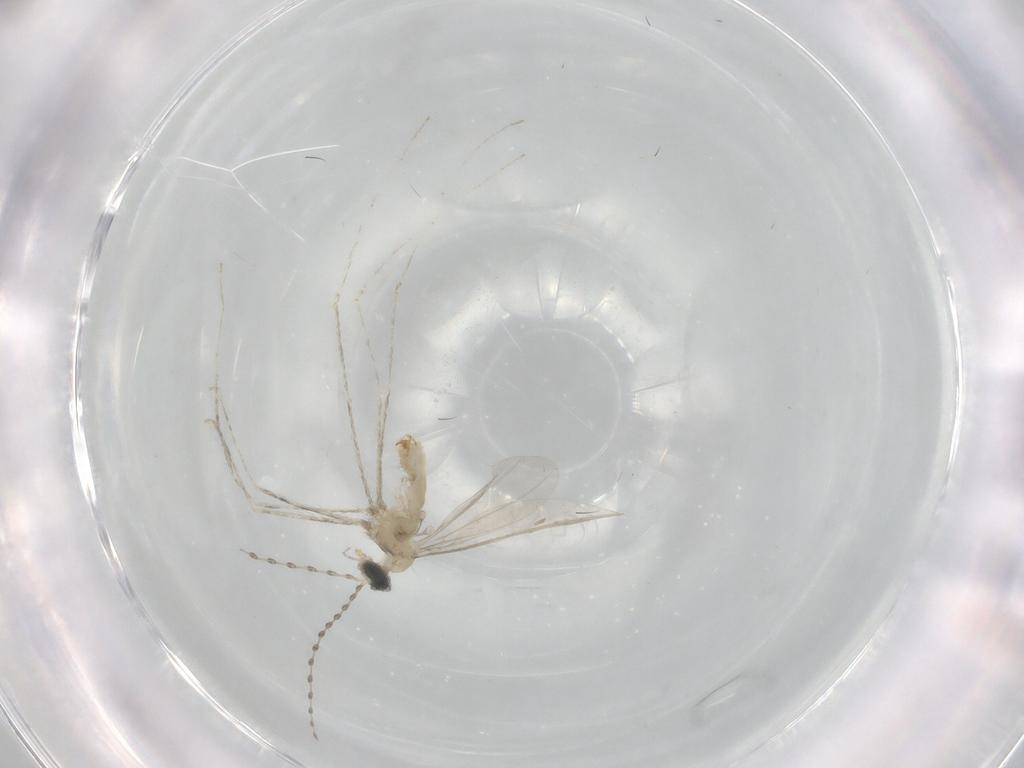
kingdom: Animalia
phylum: Arthropoda
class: Insecta
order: Diptera
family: Cecidomyiidae
